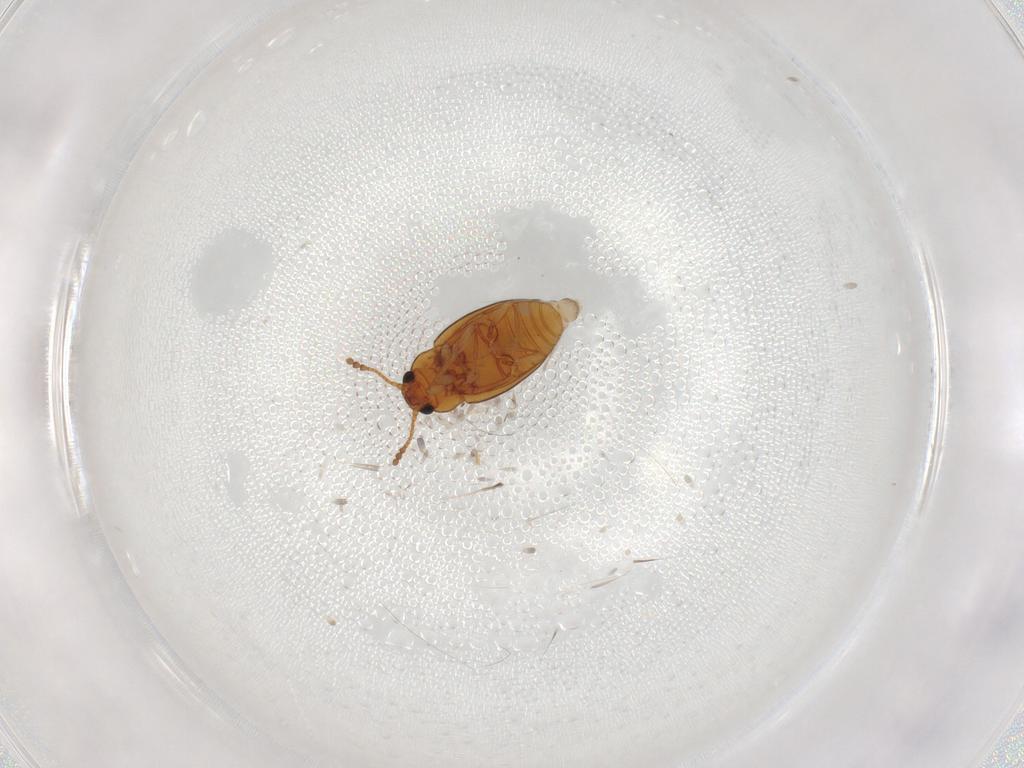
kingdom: Animalia
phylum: Arthropoda
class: Insecta
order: Coleoptera
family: Erotylidae
